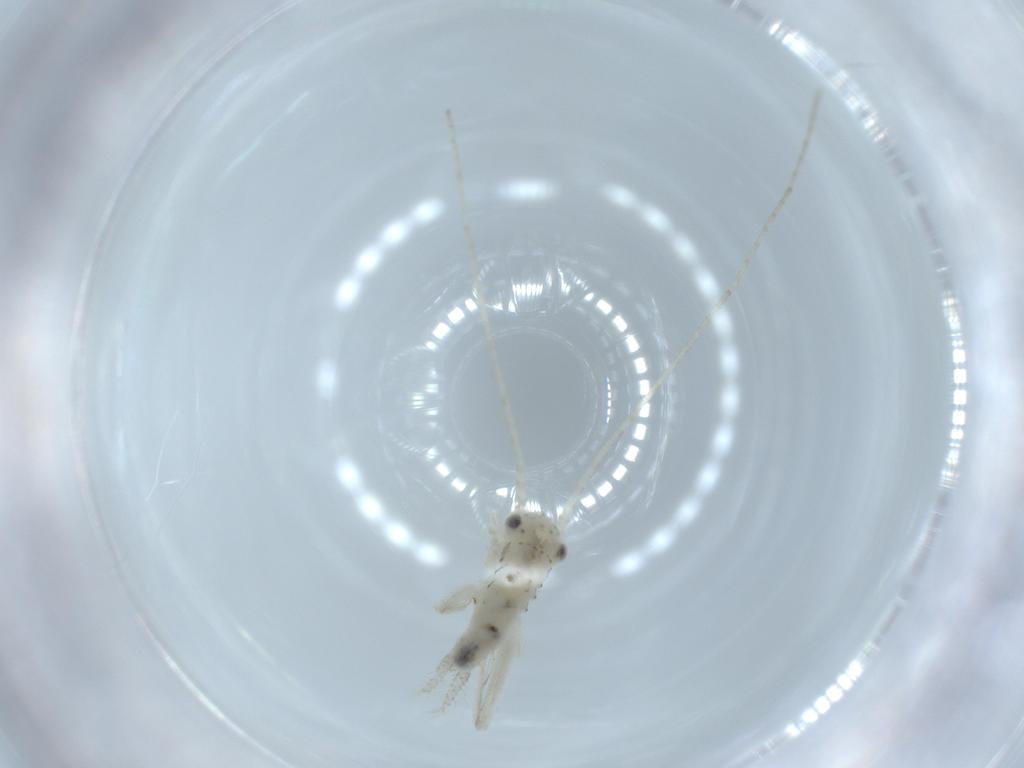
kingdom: Animalia
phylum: Arthropoda
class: Insecta
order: Orthoptera
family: Trigonidiidae
